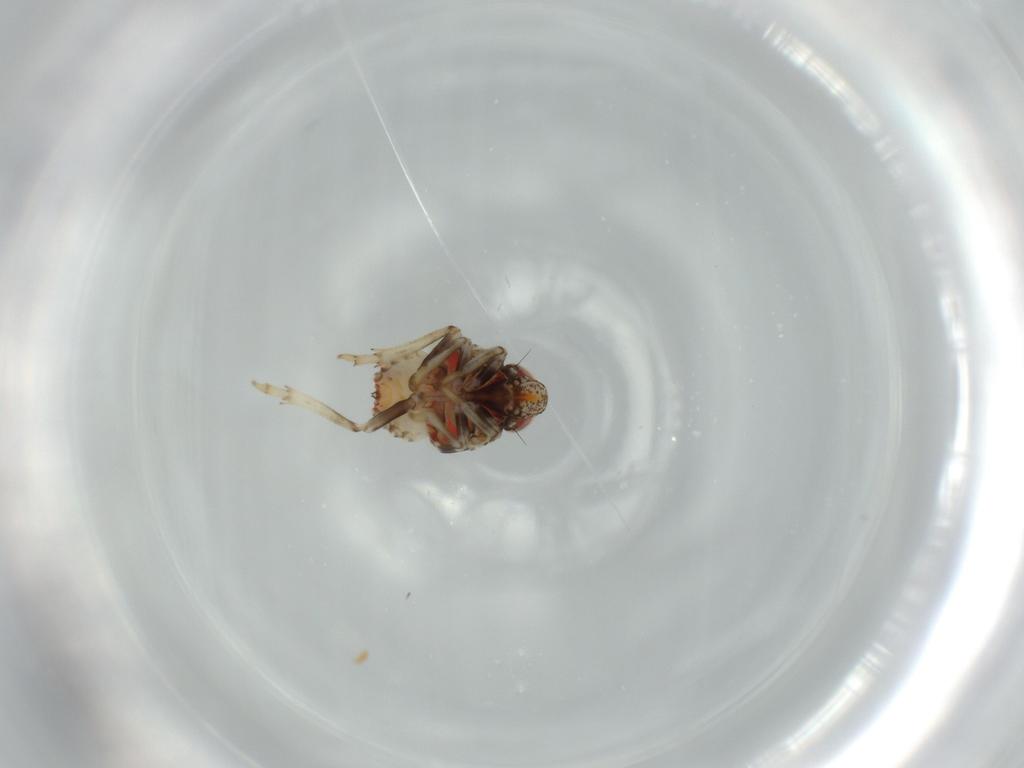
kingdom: Animalia
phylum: Arthropoda
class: Insecta
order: Hemiptera
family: Issidae
